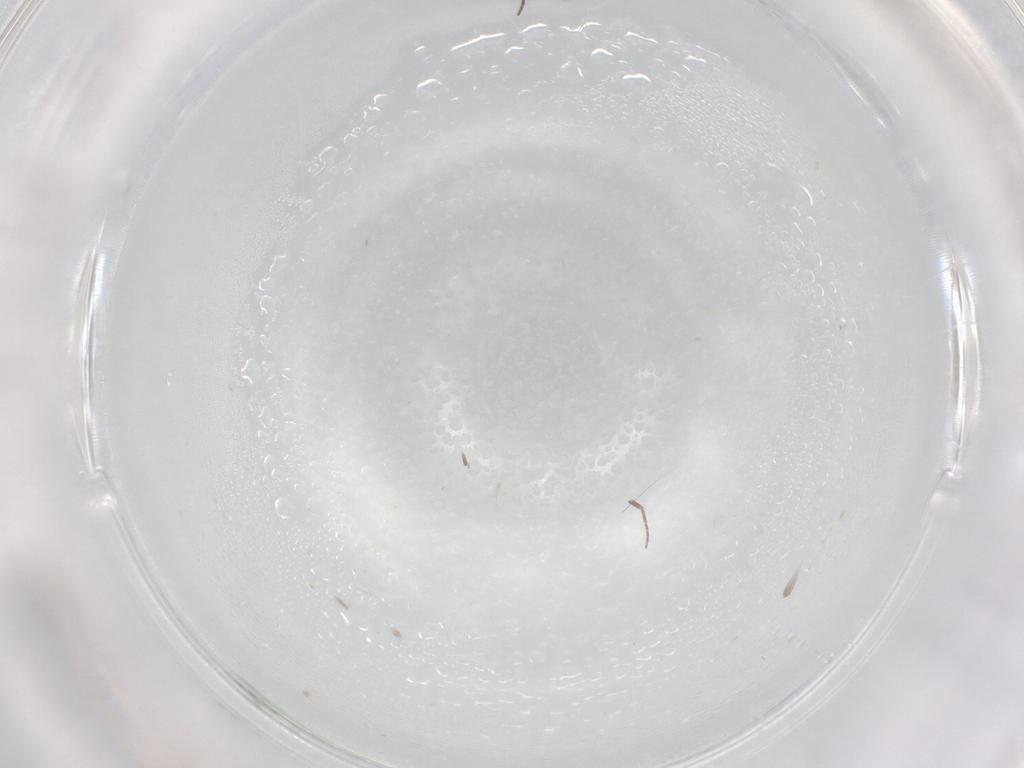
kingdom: Animalia
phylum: Arthropoda
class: Insecta
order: Diptera
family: Phoridae
